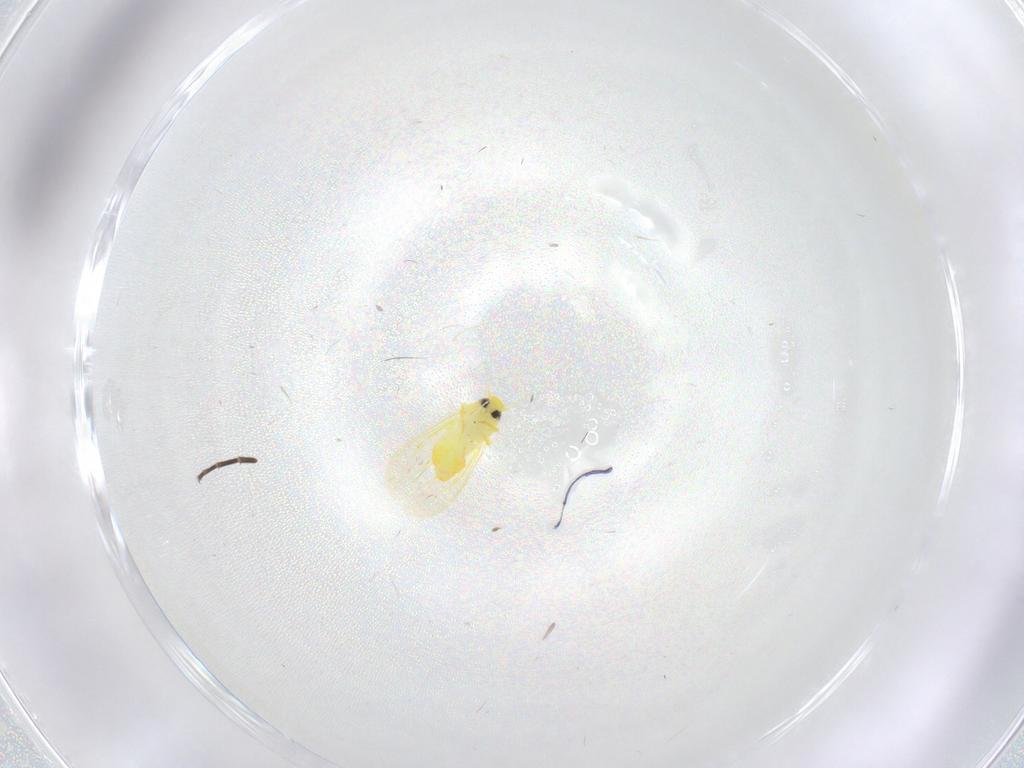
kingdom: Animalia
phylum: Arthropoda
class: Insecta
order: Hemiptera
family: Aleyrodidae
